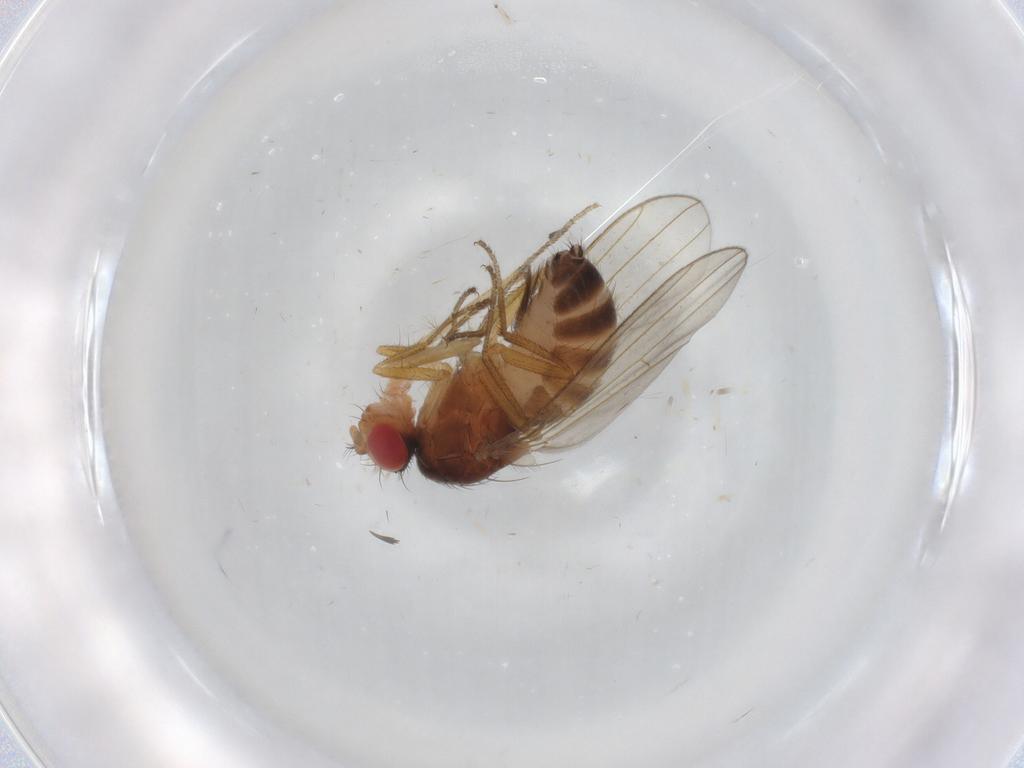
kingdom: Animalia
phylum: Arthropoda
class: Insecta
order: Diptera
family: Drosophilidae
